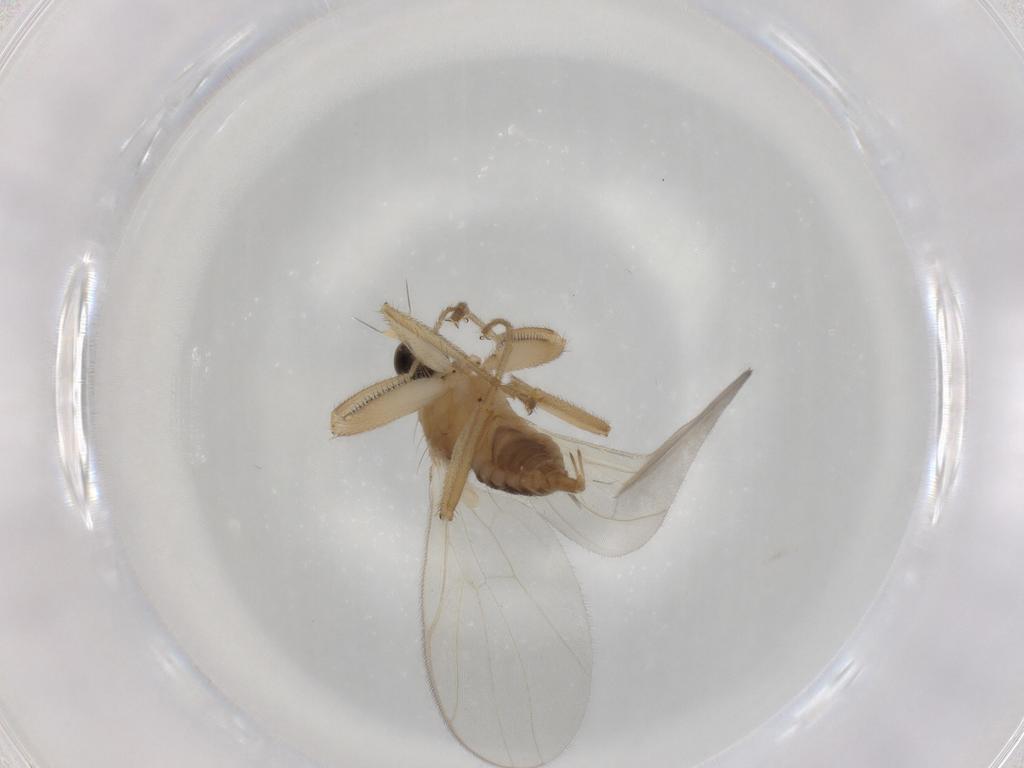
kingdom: Animalia
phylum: Arthropoda
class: Insecta
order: Diptera
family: Hybotidae
